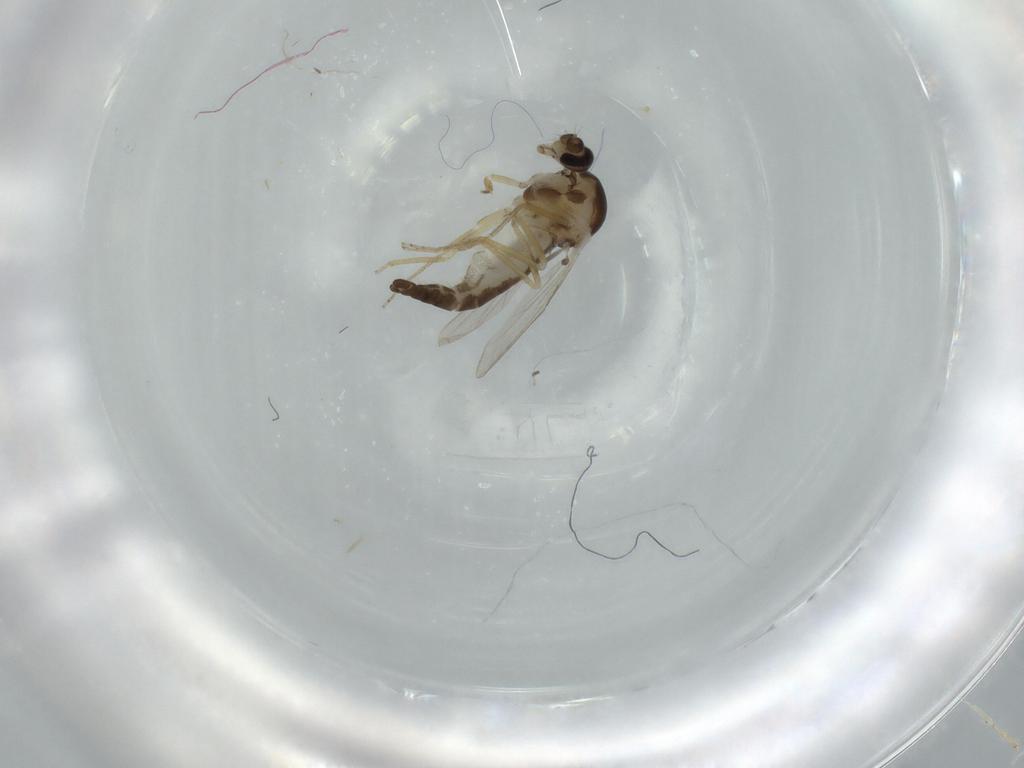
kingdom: Animalia
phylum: Arthropoda
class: Insecta
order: Diptera
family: Ceratopogonidae
